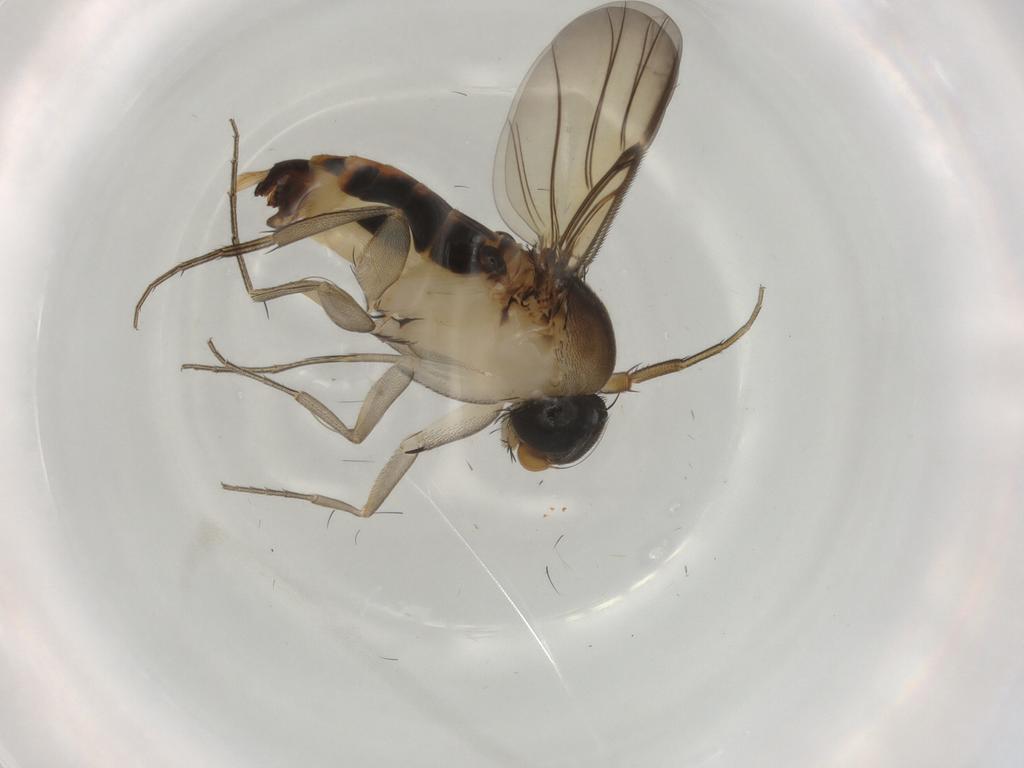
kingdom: Animalia
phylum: Arthropoda
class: Insecta
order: Diptera
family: Phoridae
